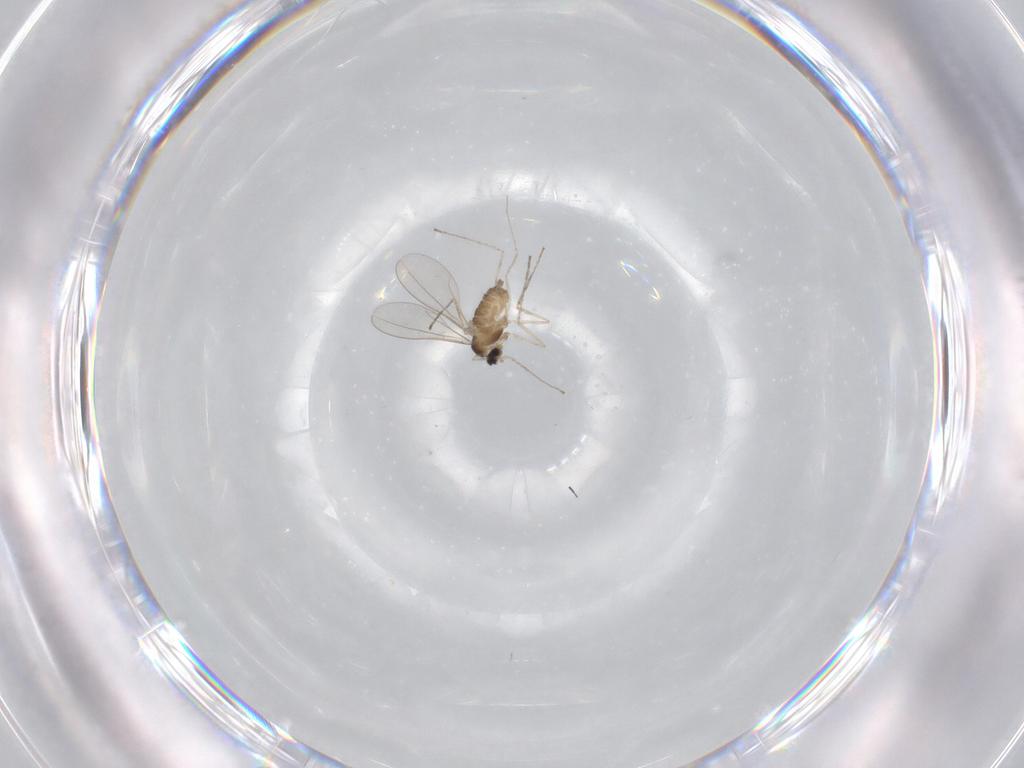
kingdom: Animalia
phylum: Arthropoda
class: Insecta
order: Diptera
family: Cecidomyiidae
